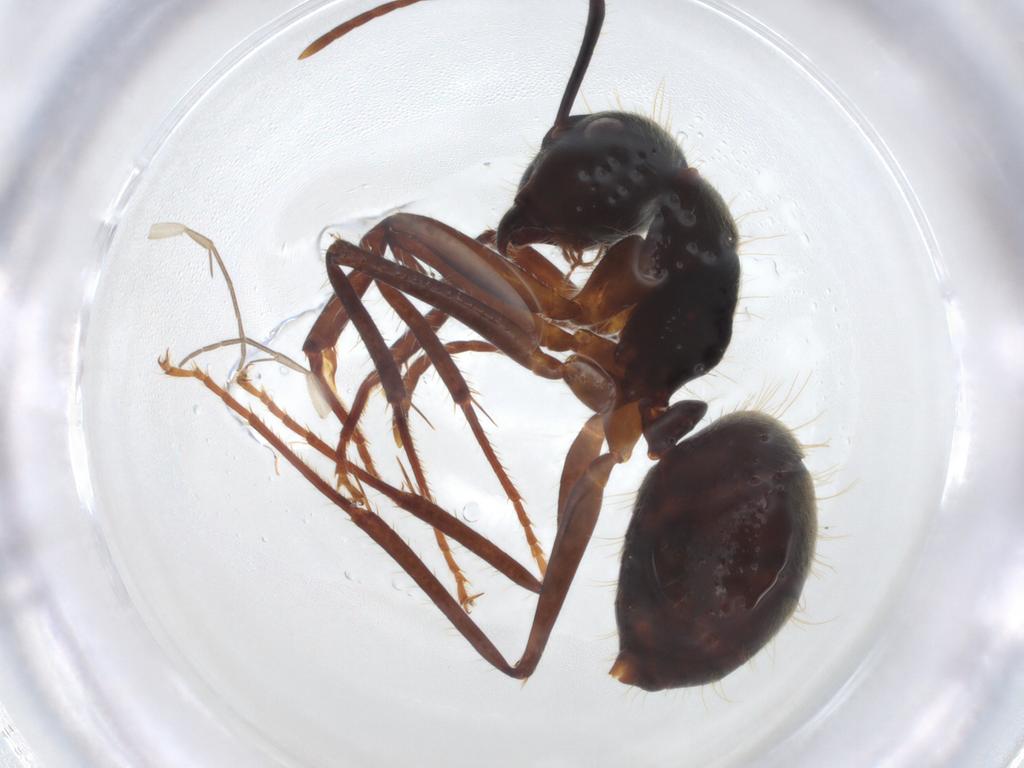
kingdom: Animalia
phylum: Arthropoda
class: Insecta
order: Hymenoptera
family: Formicidae
